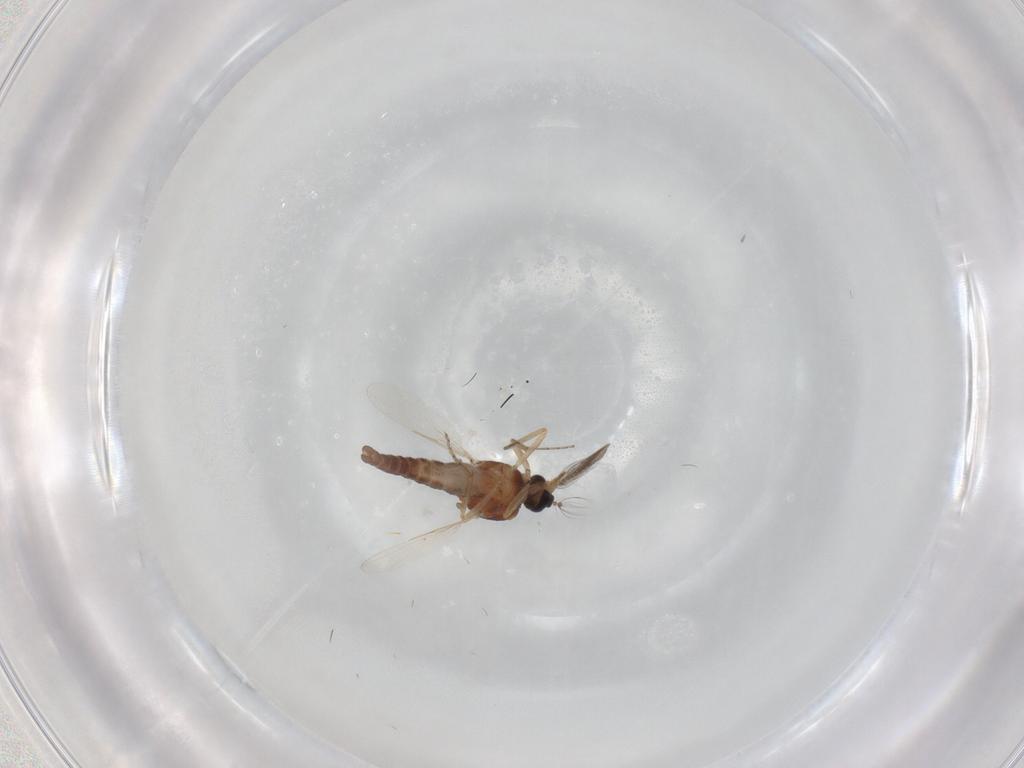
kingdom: Animalia
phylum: Arthropoda
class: Insecta
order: Diptera
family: Ceratopogonidae
